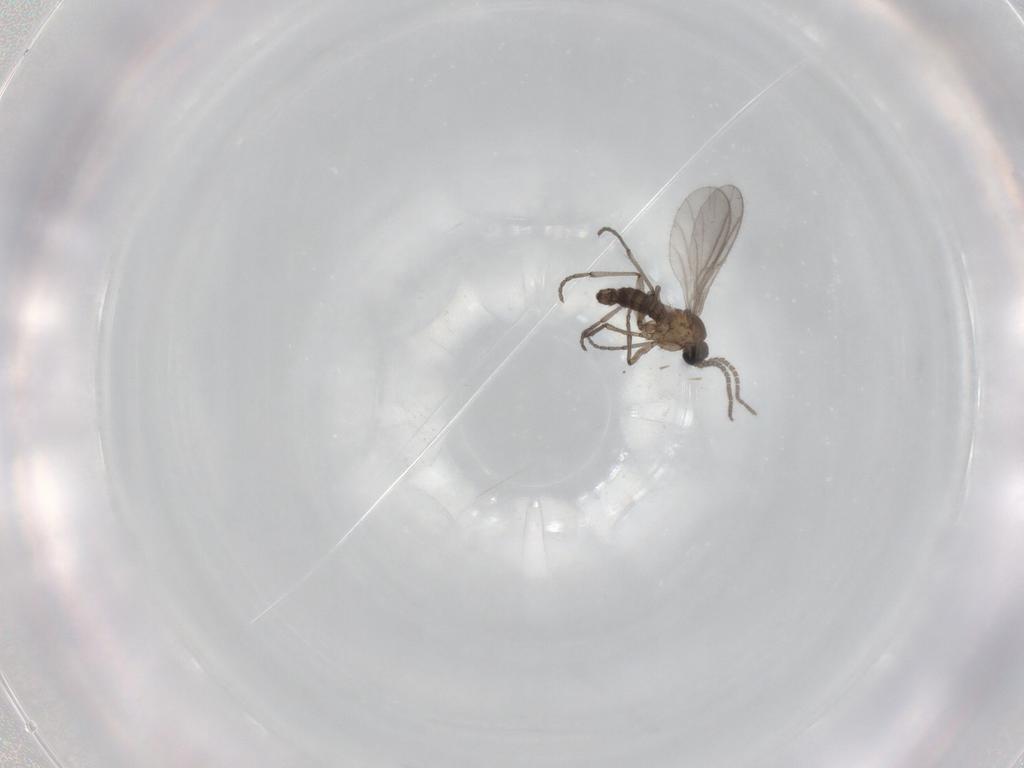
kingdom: Animalia
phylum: Arthropoda
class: Insecta
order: Diptera
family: Sciaridae
